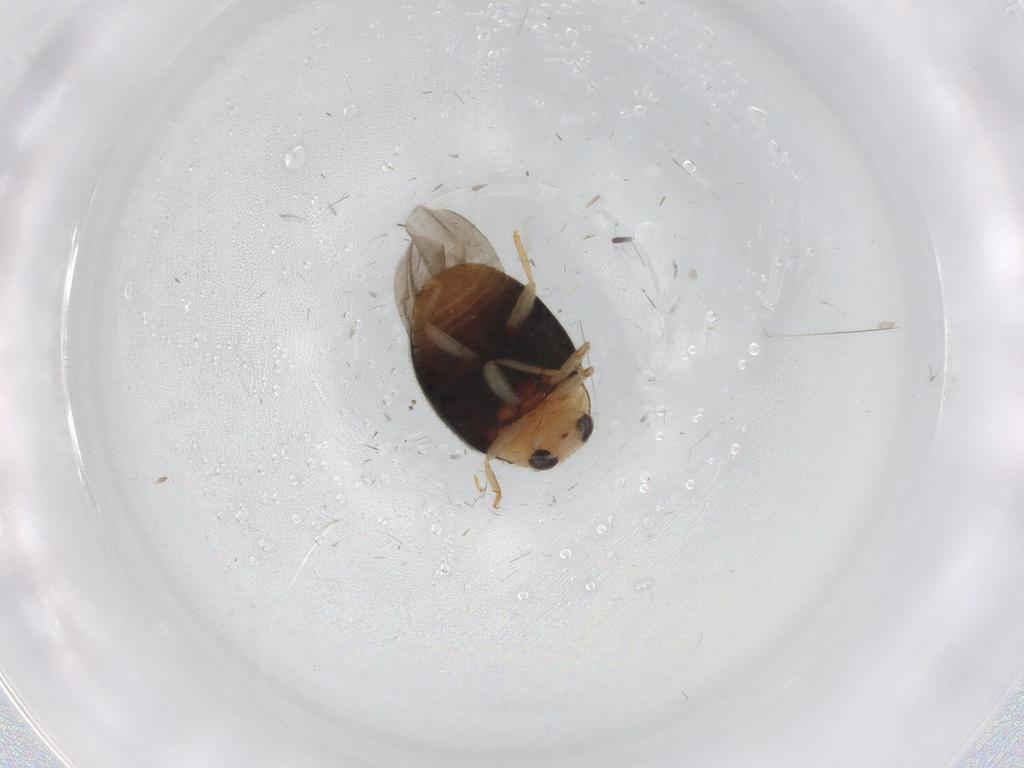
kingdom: Animalia
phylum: Arthropoda
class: Insecta
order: Coleoptera
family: Coccinellidae
